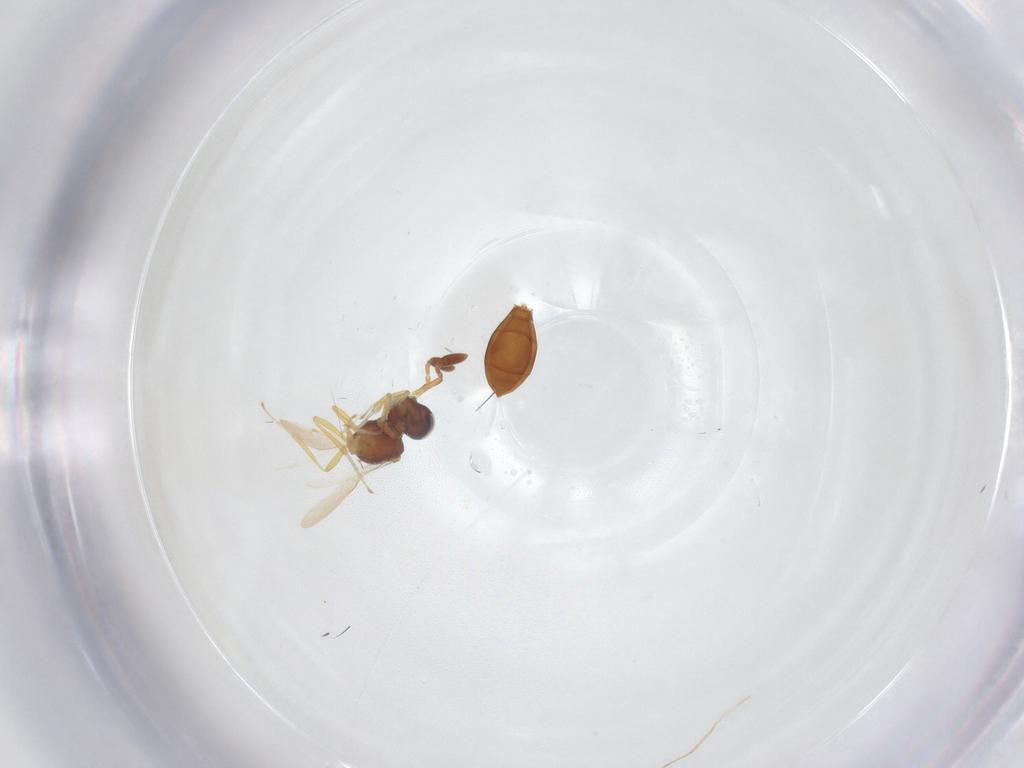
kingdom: Animalia
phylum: Arthropoda
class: Insecta
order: Hymenoptera
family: Scelionidae
